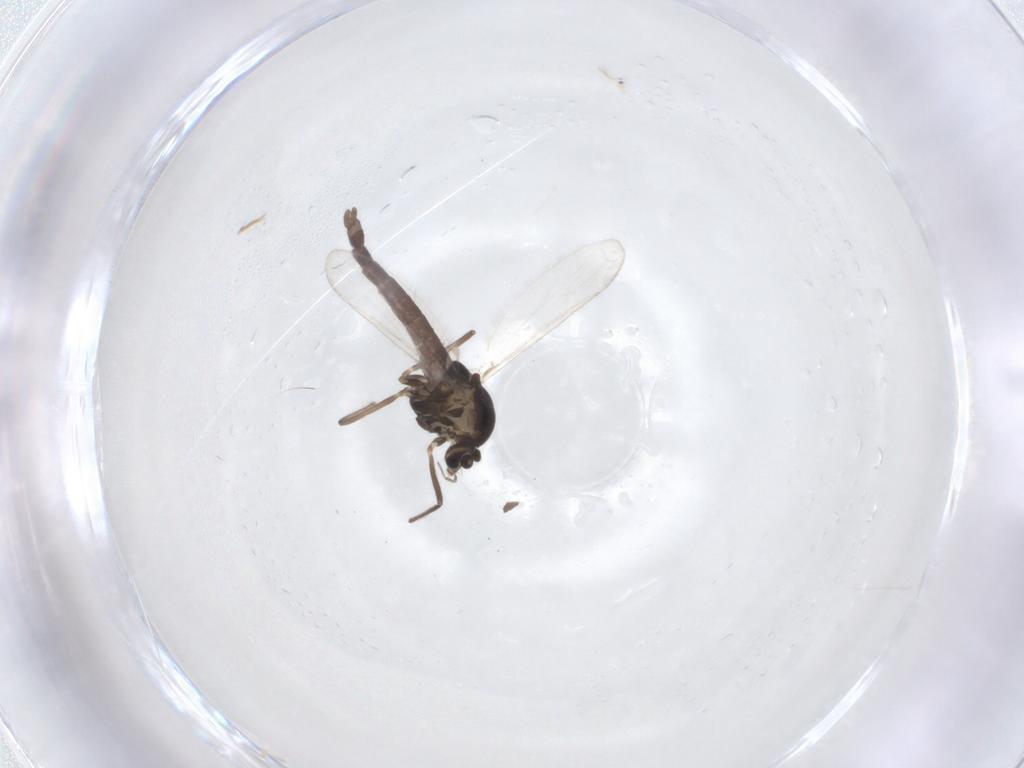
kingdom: Animalia
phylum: Arthropoda
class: Insecta
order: Diptera
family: Chironomidae
